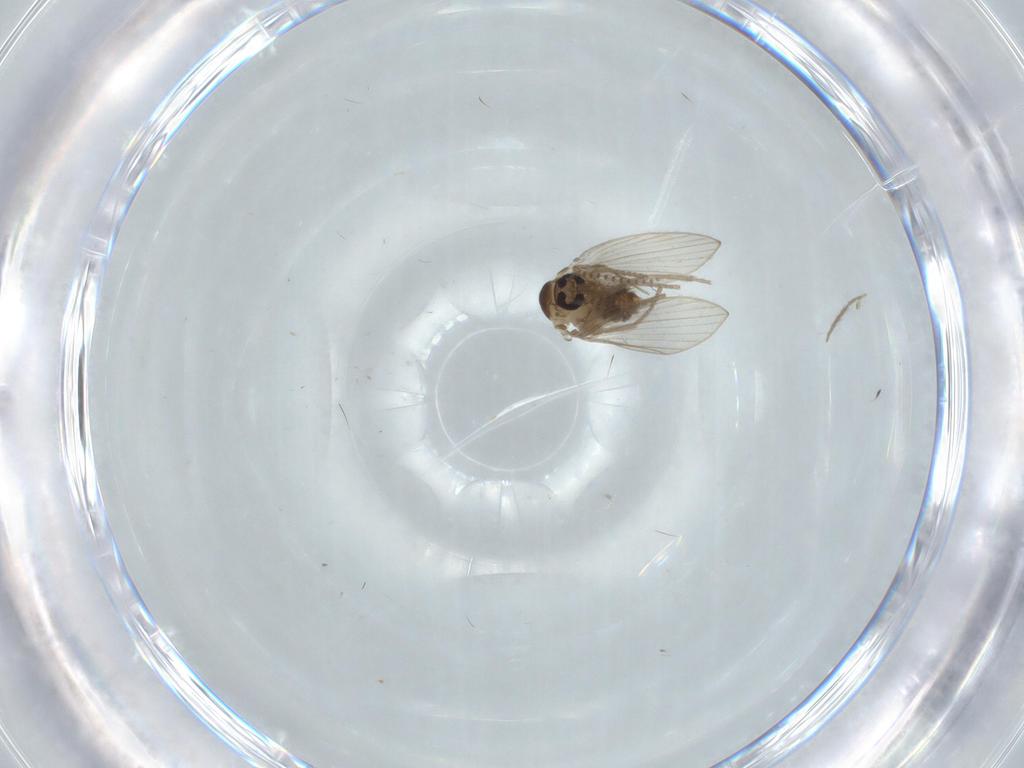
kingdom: Animalia
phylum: Arthropoda
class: Insecta
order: Diptera
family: Psychodidae
